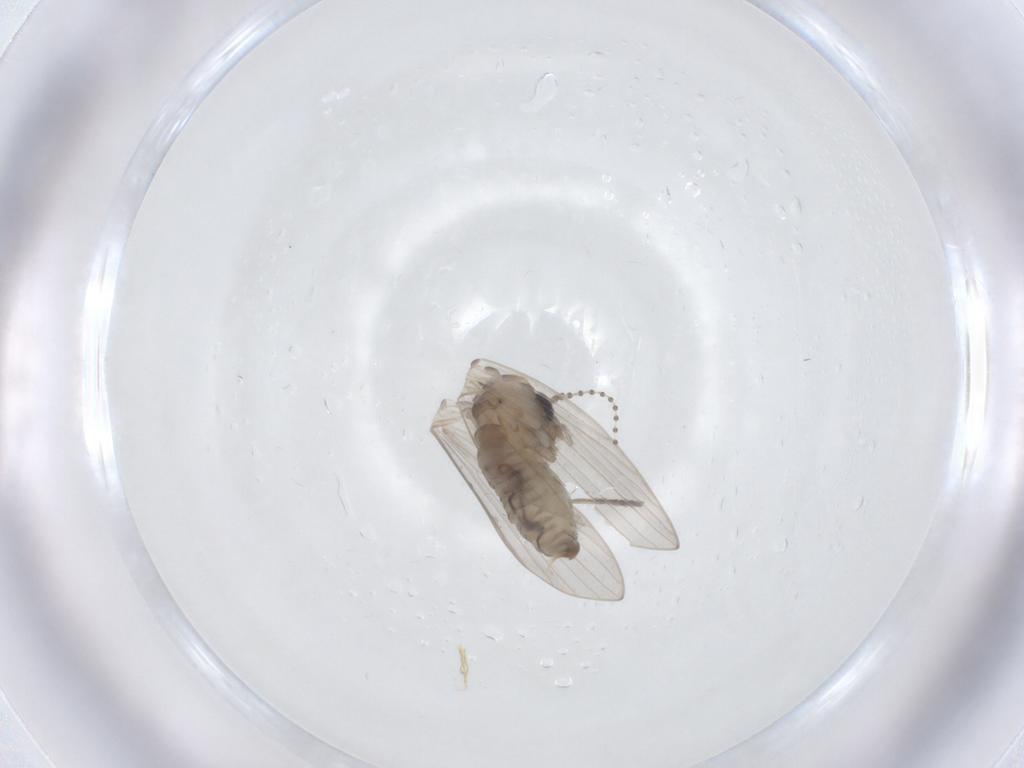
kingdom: Animalia
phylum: Arthropoda
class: Insecta
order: Diptera
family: Psychodidae
